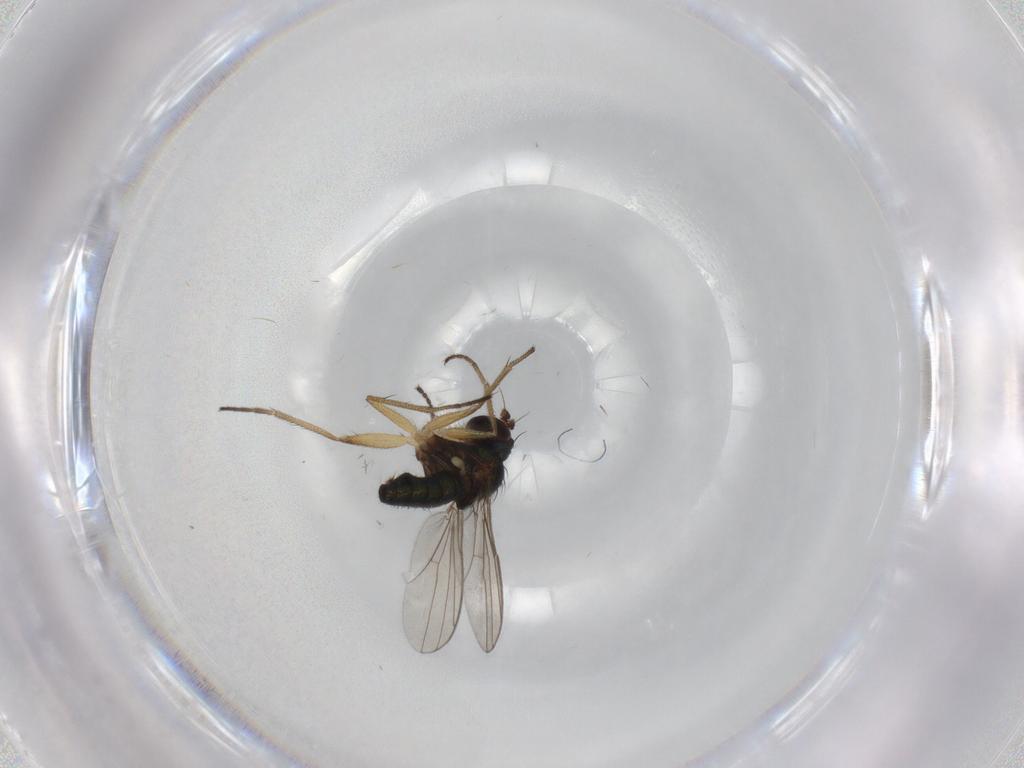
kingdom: Animalia
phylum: Arthropoda
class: Insecta
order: Diptera
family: Dolichopodidae
